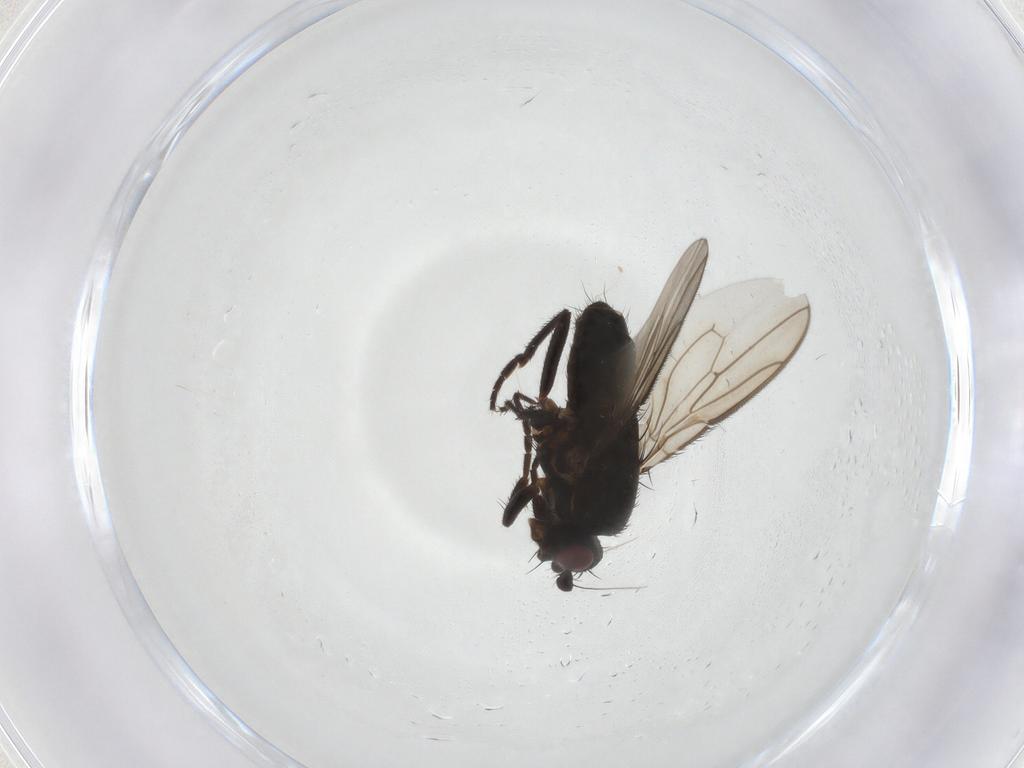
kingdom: Animalia
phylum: Arthropoda
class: Insecta
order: Diptera
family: Sphaeroceridae
